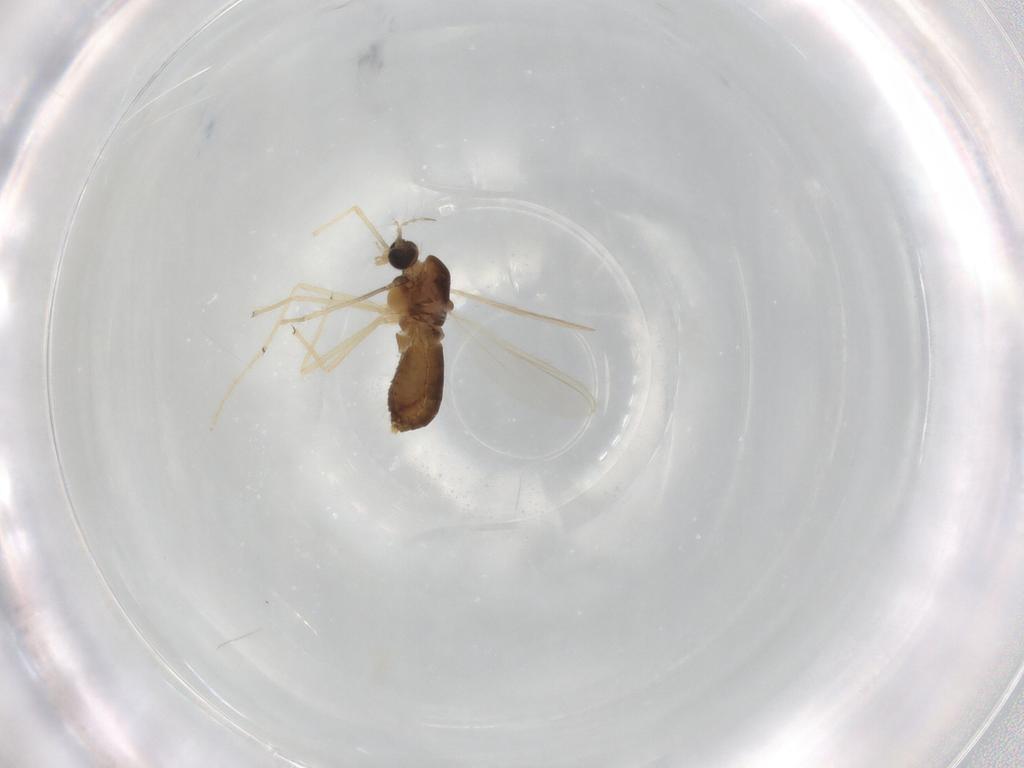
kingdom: Animalia
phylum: Arthropoda
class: Insecta
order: Diptera
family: Chironomidae
